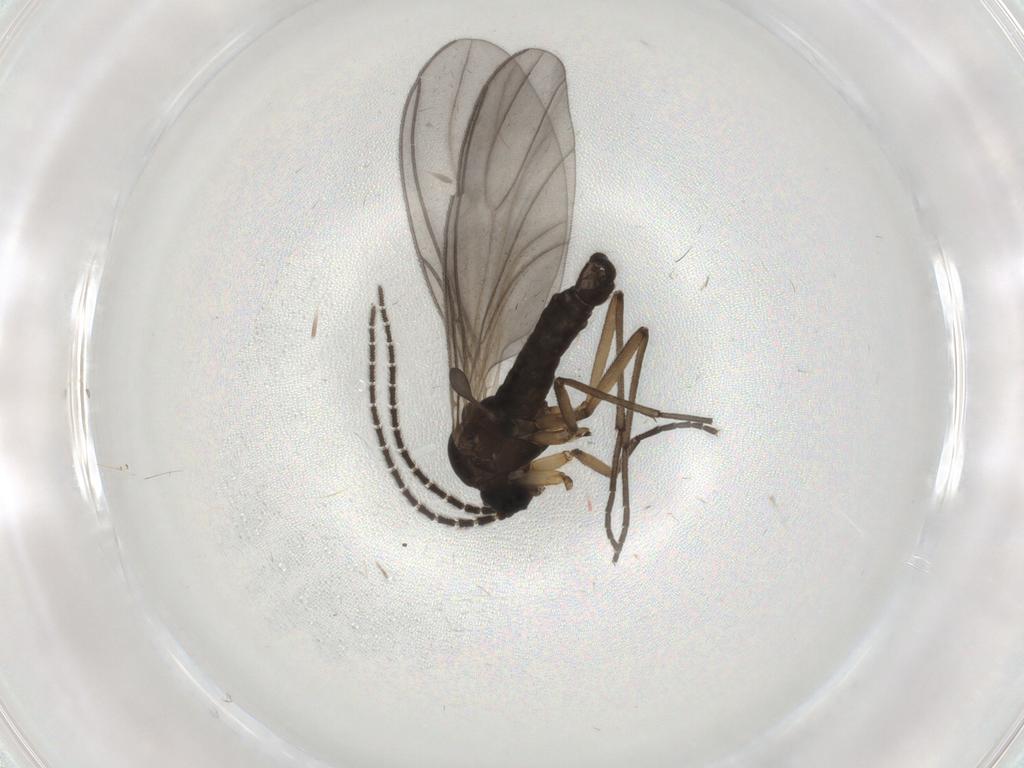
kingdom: Animalia
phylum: Arthropoda
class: Insecta
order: Diptera
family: Sciaridae
